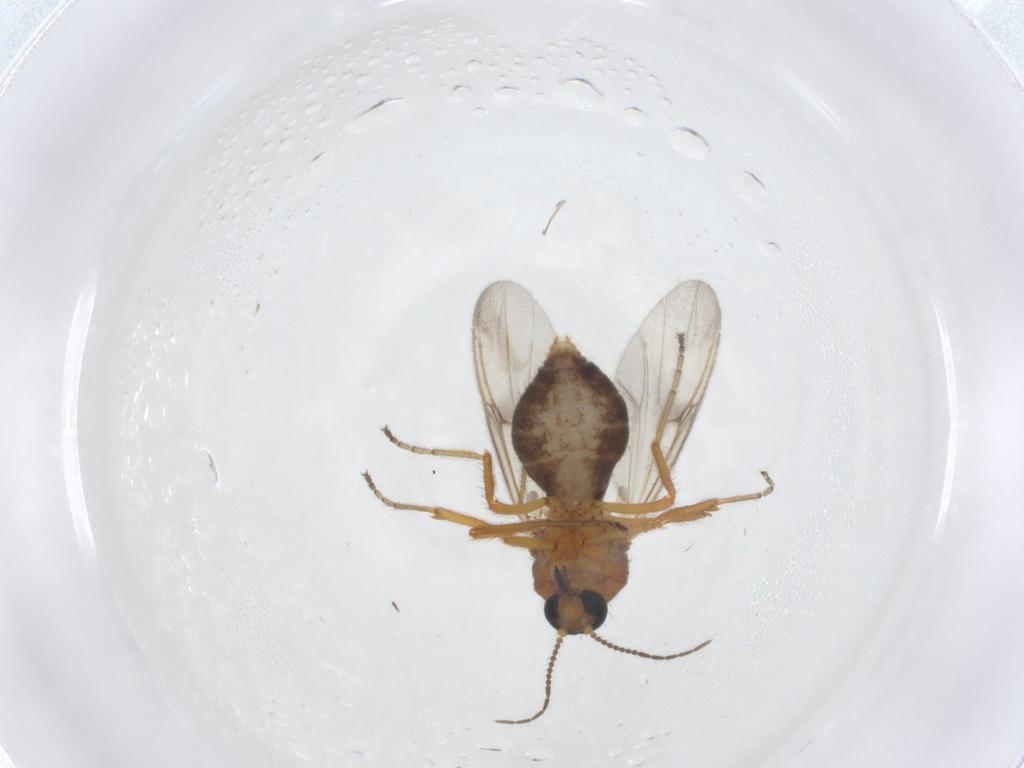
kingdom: Animalia
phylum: Arthropoda
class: Insecta
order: Diptera
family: Ceratopogonidae
